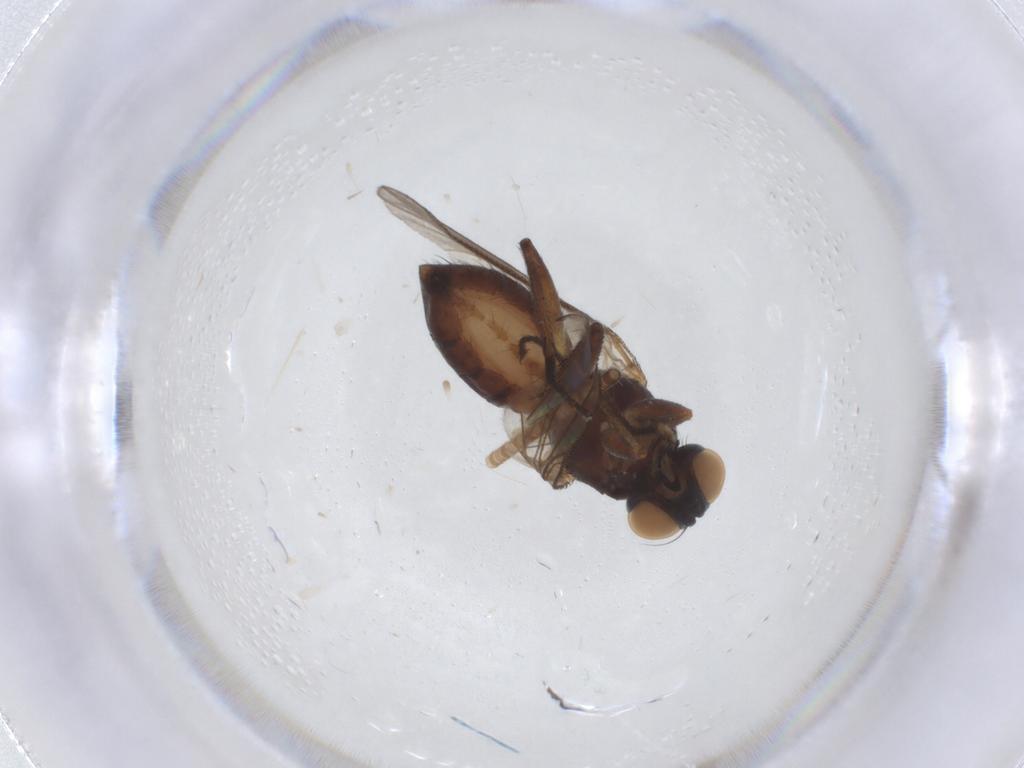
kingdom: Animalia
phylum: Arthropoda
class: Insecta
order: Diptera
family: Muscidae
